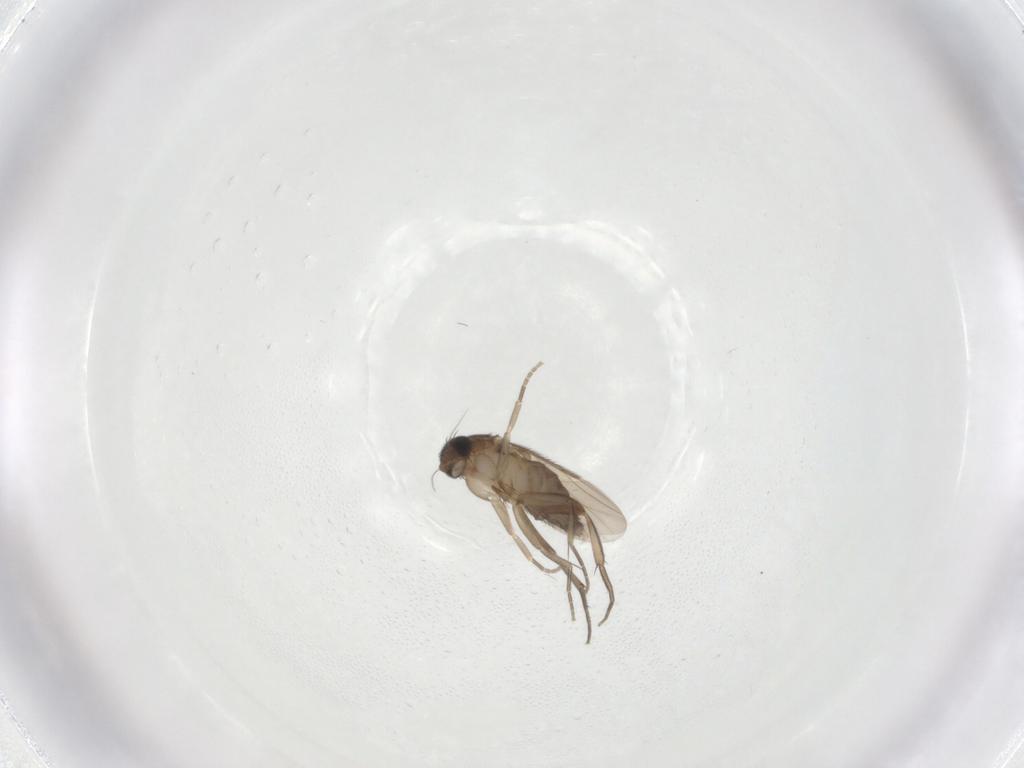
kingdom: Animalia
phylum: Arthropoda
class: Insecta
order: Diptera
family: Phoridae
